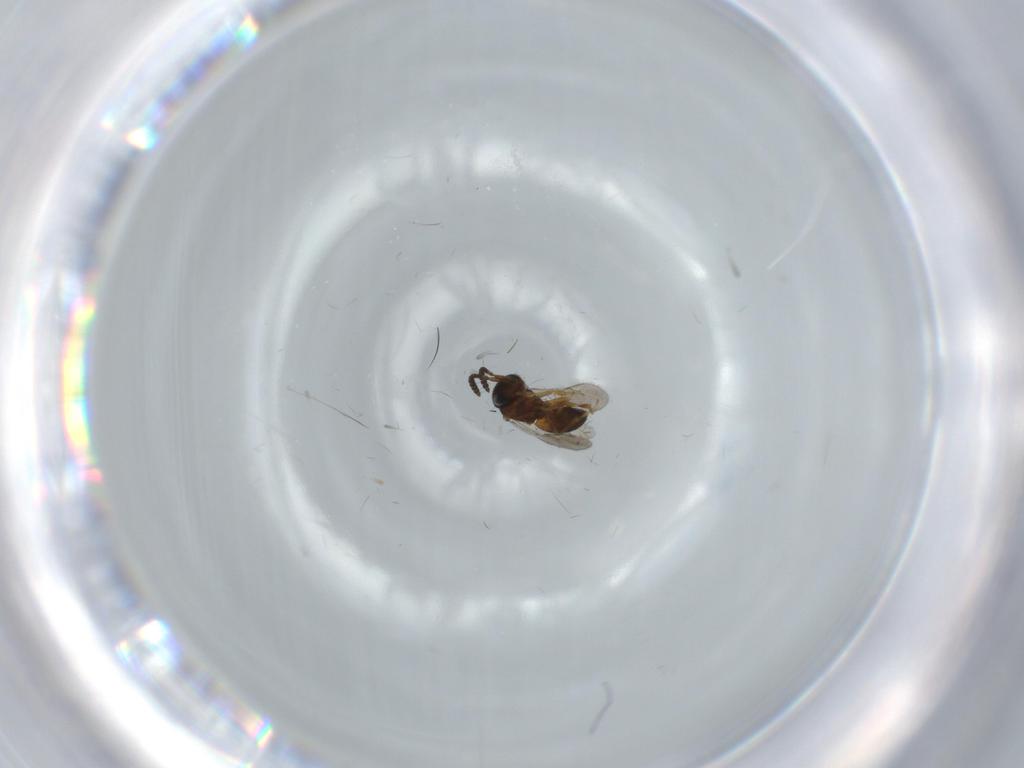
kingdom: Animalia
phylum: Arthropoda
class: Insecta
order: Hymenoptera
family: Scelionidae
